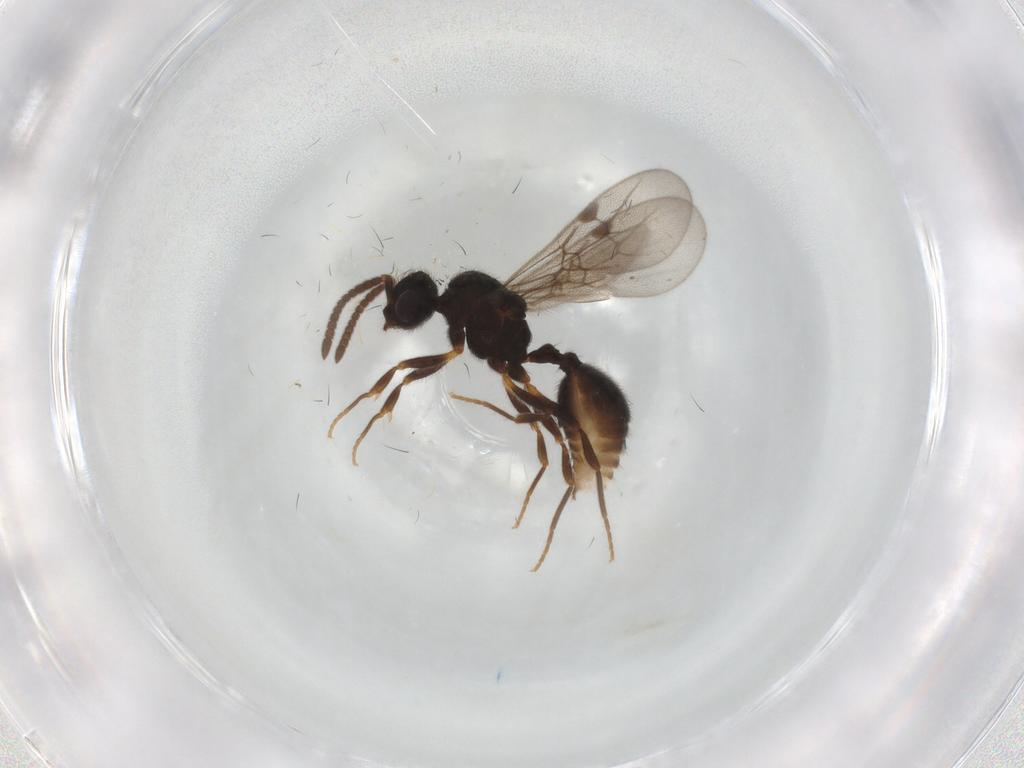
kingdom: Animalia
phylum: Arthropoda
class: Insecta
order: Hymenoptera
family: Formicidae
